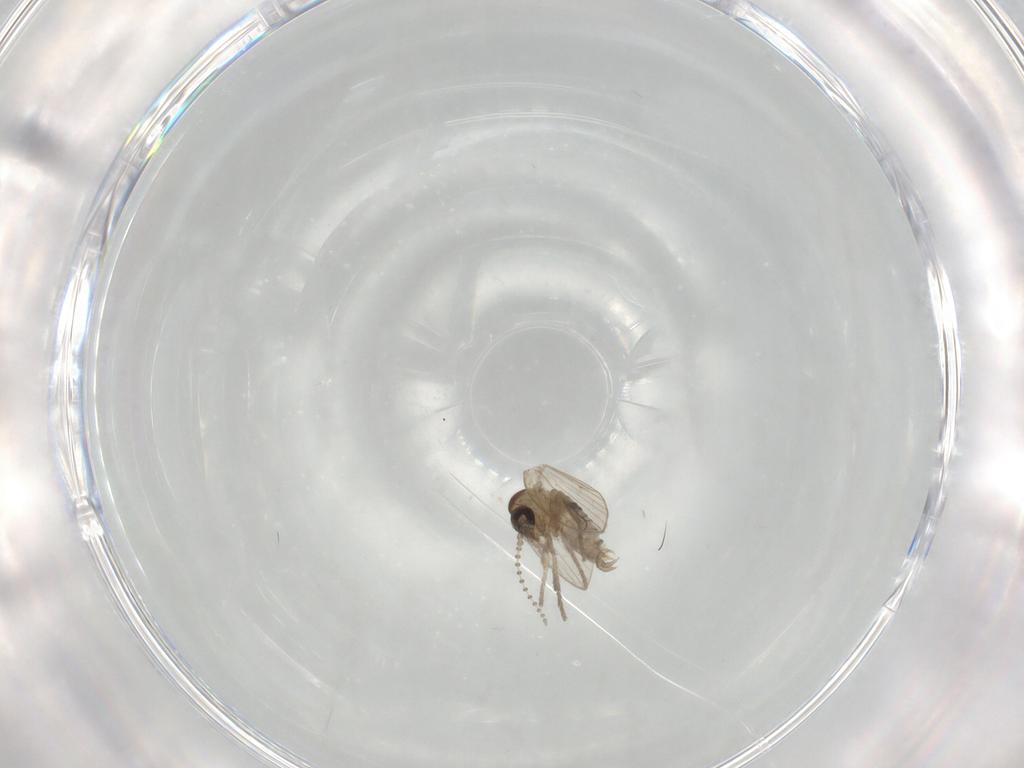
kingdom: Animalia
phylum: Arthropoda
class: Insecta
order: Diptera
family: Psychodidae
